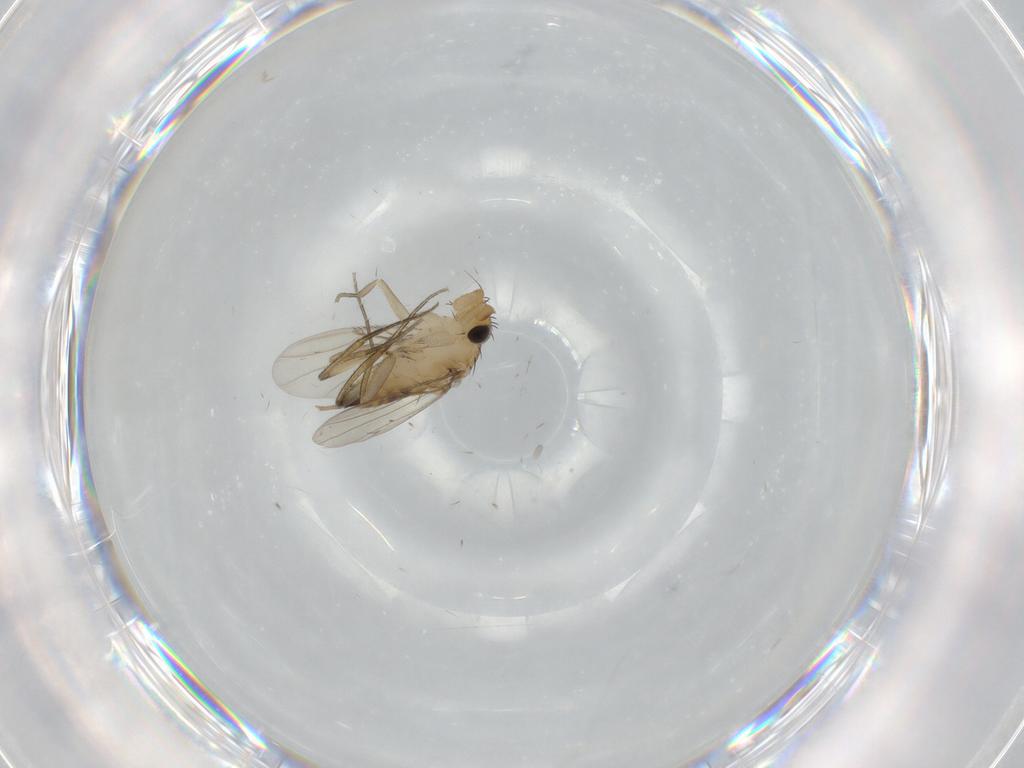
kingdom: Animalia
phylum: Arthropoda
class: Insecta
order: Diptera
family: Phoridae
